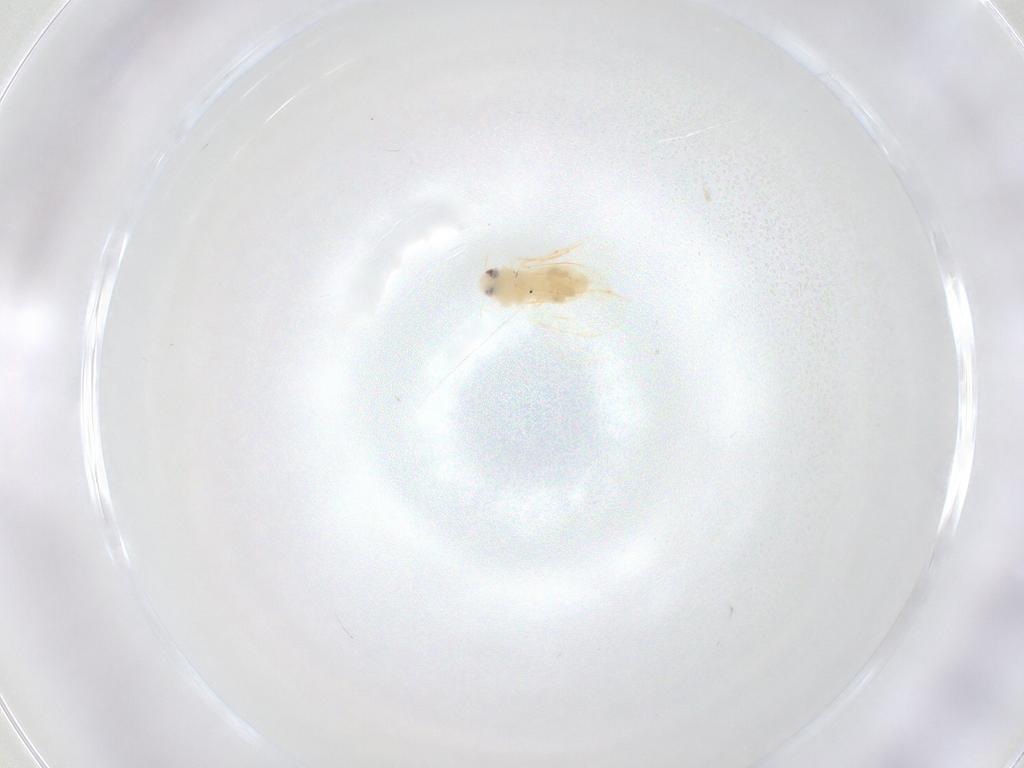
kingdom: Animalia
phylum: Arthropoda
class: Insecta
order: Hemiptera
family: Aleyrodidae
